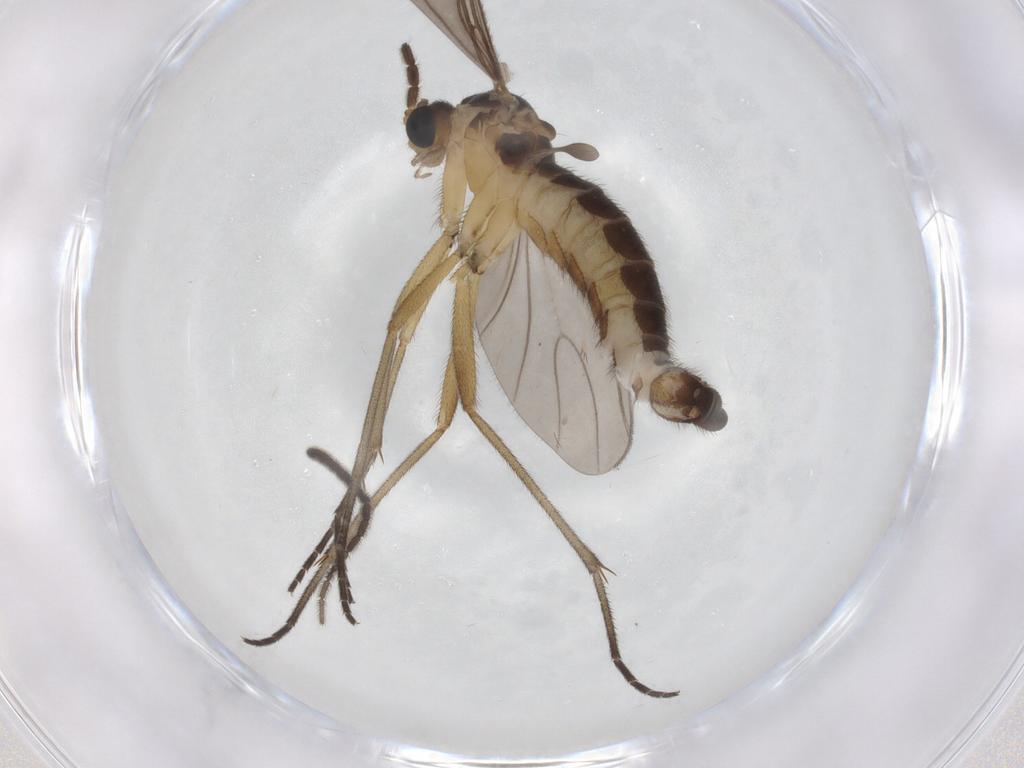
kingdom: Animalia
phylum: Arthropoda
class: Insecta
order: Diptera
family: Sciaridae
